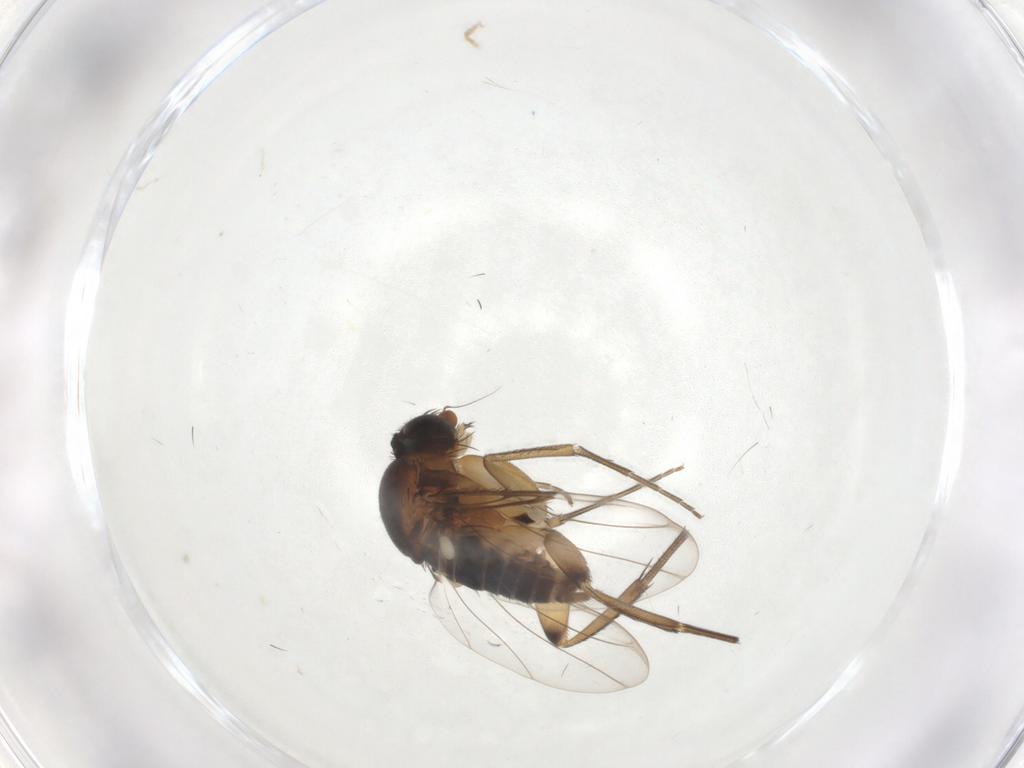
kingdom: Animalia
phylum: Arthropoda
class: Insecta
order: Diptera
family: Phoridae
